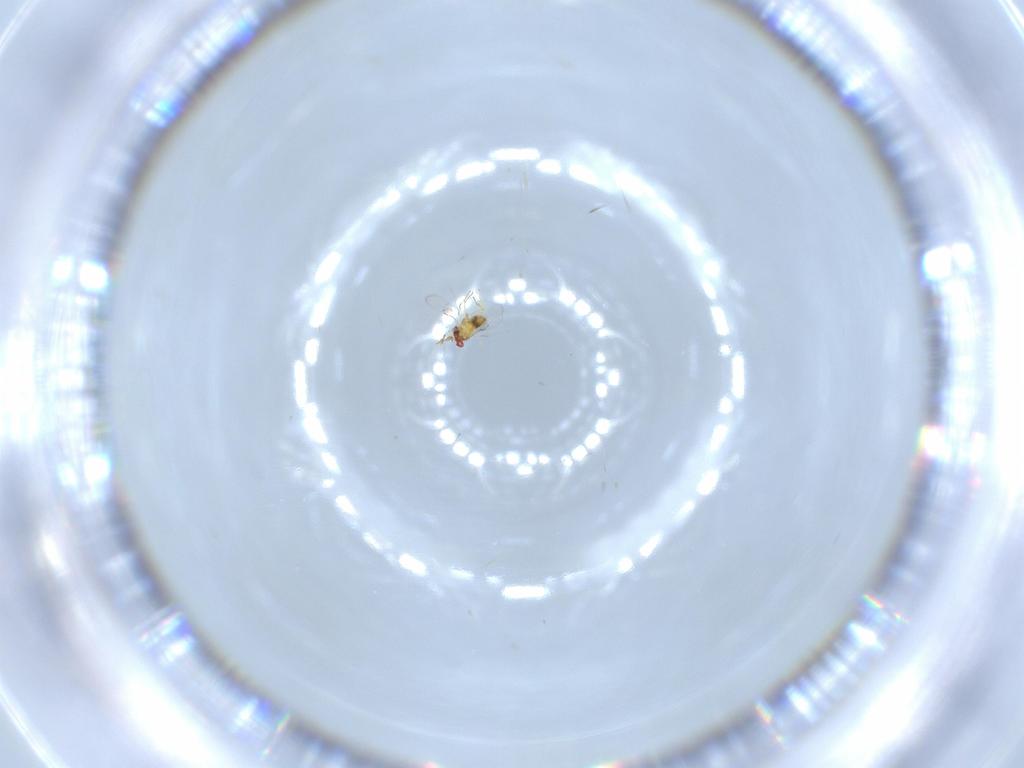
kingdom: Animalia
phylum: Arthropoda
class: Insecta
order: Hymenoptera
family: Trichogrammatidae
